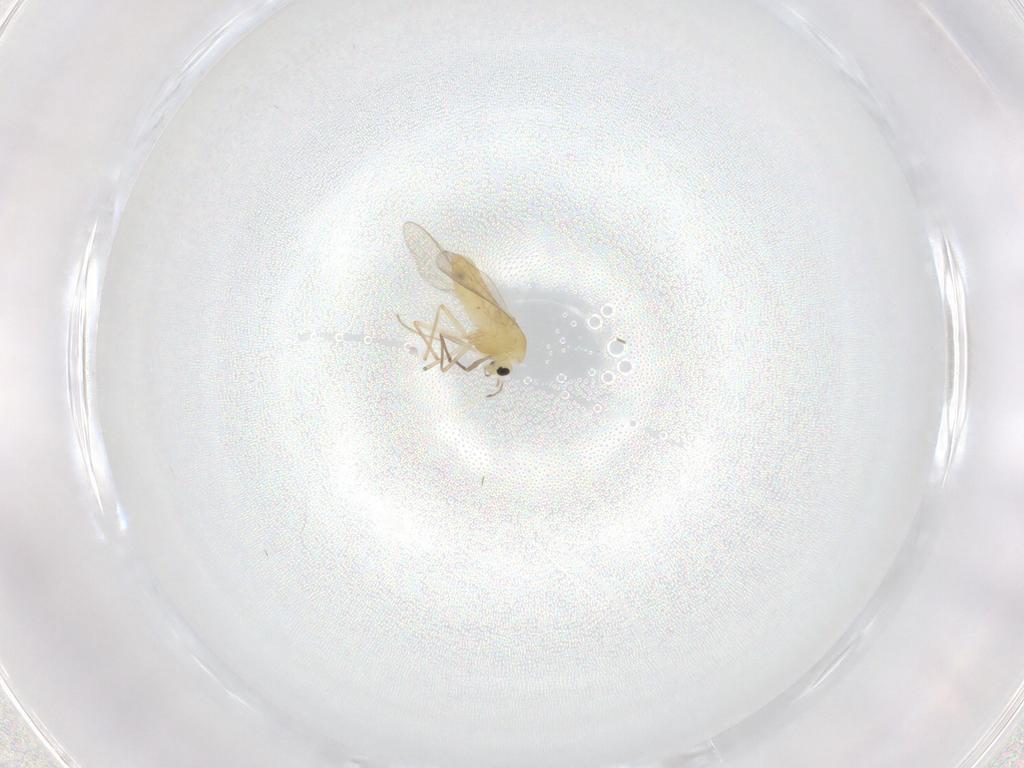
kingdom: Animalia
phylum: Arthropoda
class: Insecta
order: Diptera
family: Chironomidae
